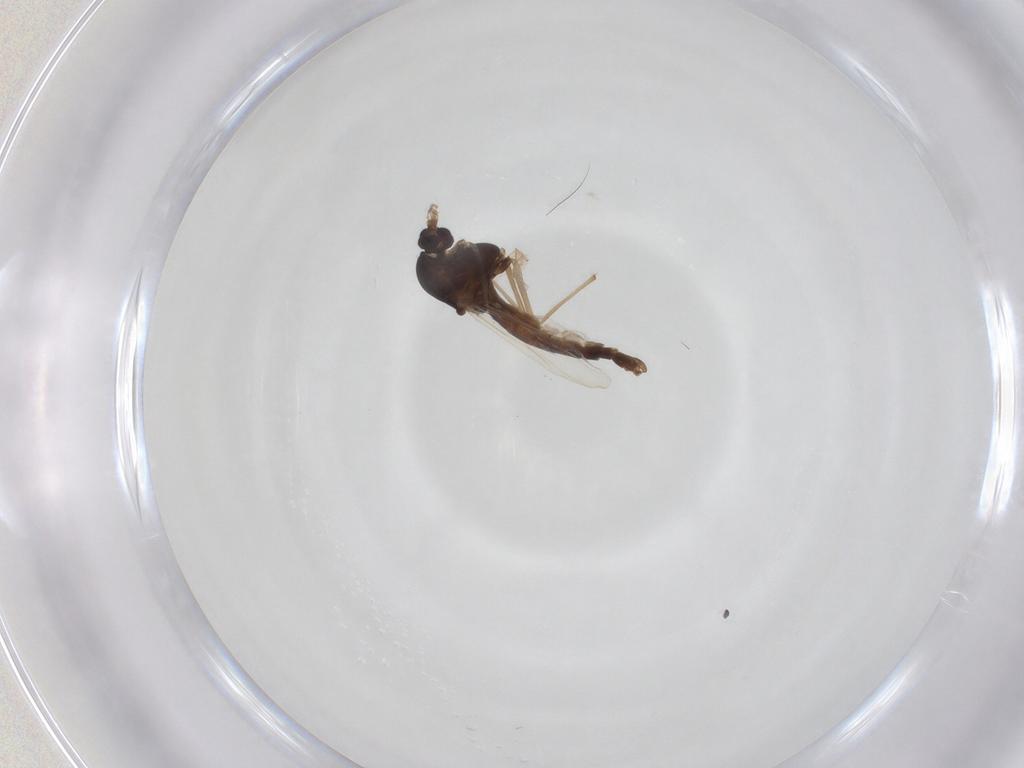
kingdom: Animalia
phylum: Arthropoda
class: Insecta
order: Diptera
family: Chironomidae
